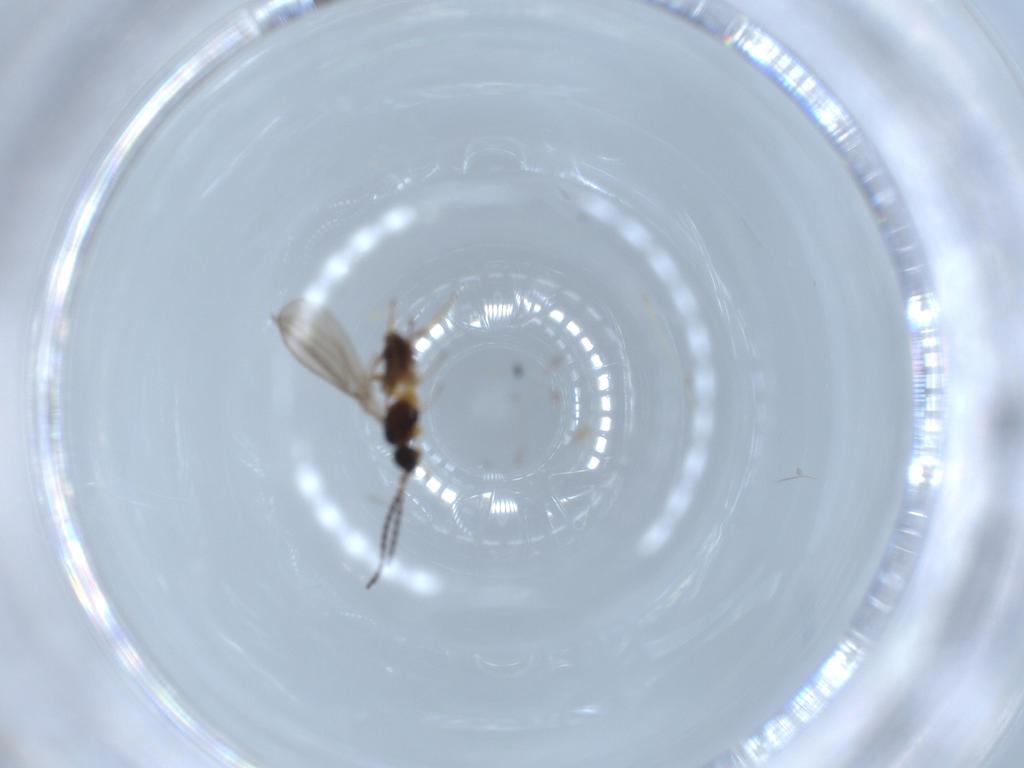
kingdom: Animalia
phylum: Arthropoda
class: Insecta
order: Hymenoptera
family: Braconidae
